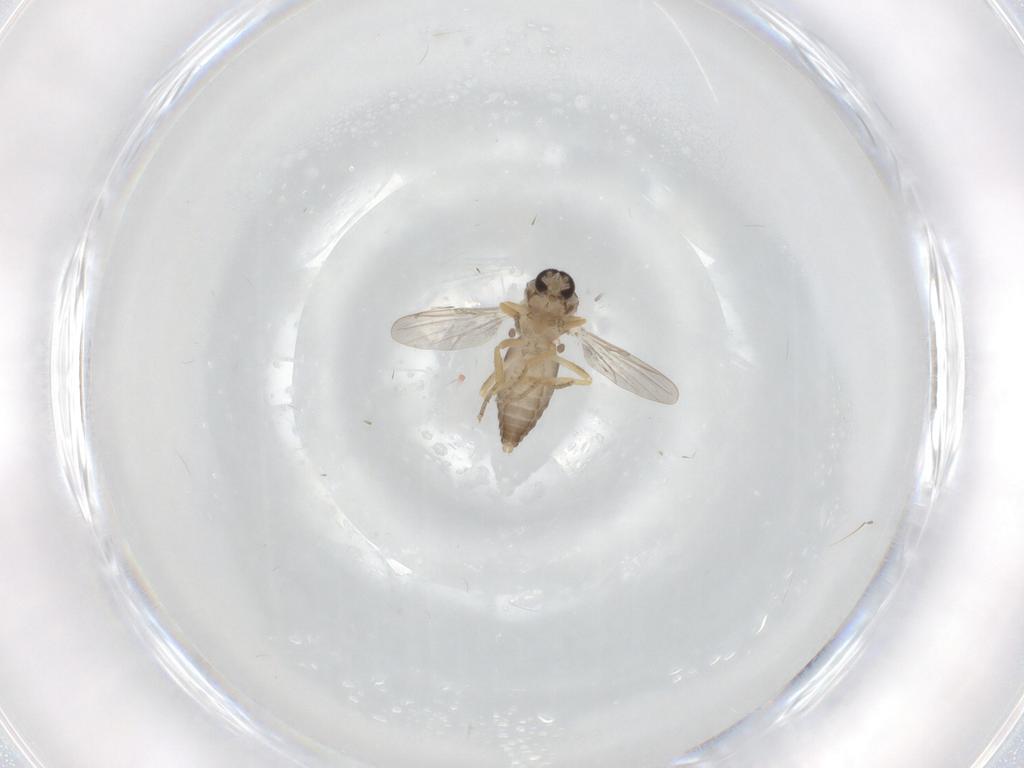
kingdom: Animalia
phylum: Arthropoda
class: Insecta
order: Diptera
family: Ceratopogonidae
